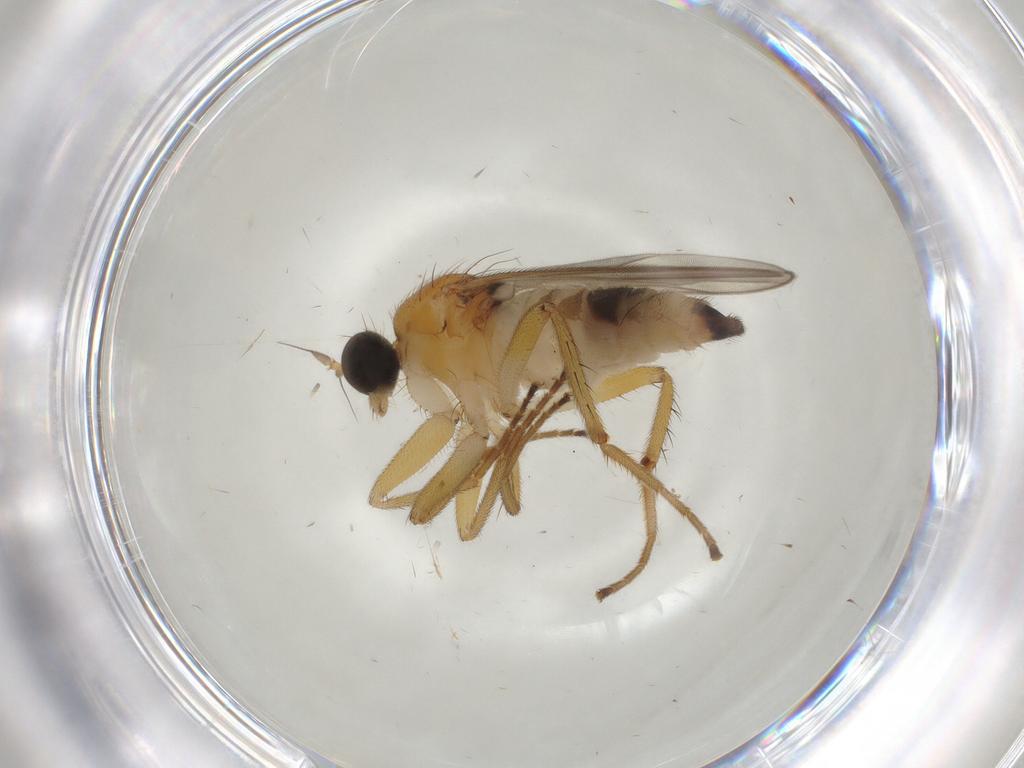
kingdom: Animalia
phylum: Arthropoda
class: Insecta
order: Diptera
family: Hybotidae
